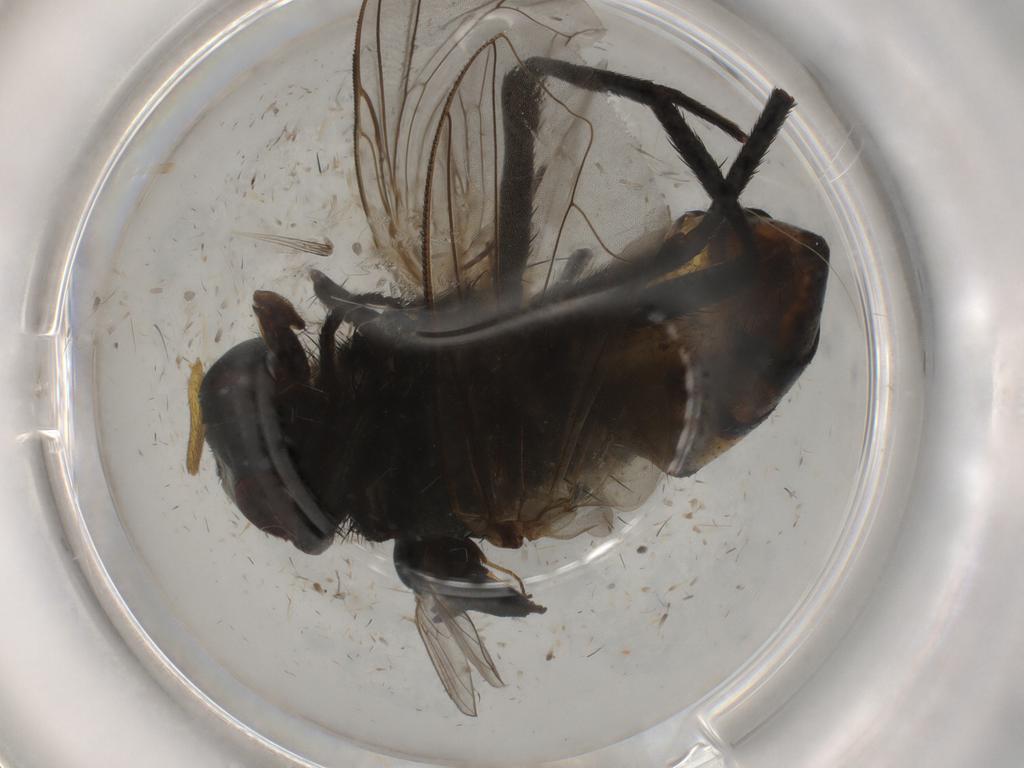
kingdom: Animalia
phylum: Arthropoda
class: Insecta
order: Diptera
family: Chloropidae
